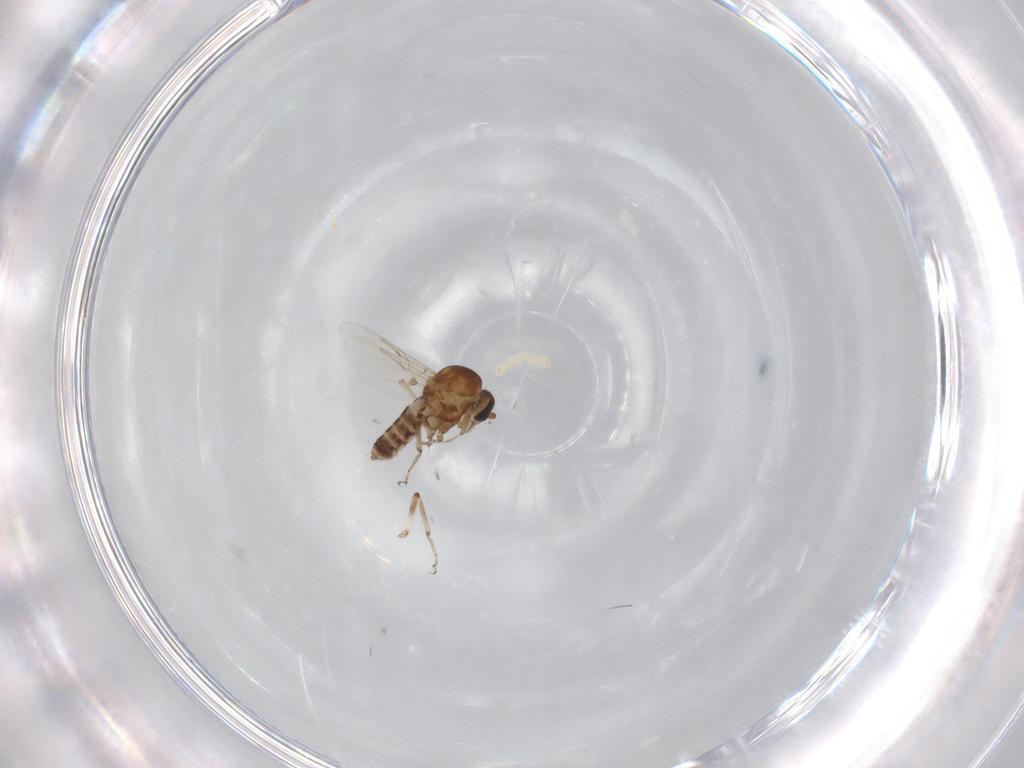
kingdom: Animalia
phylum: Arthropoda
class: Insecta
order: Diptera
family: Ceratopogonidae
